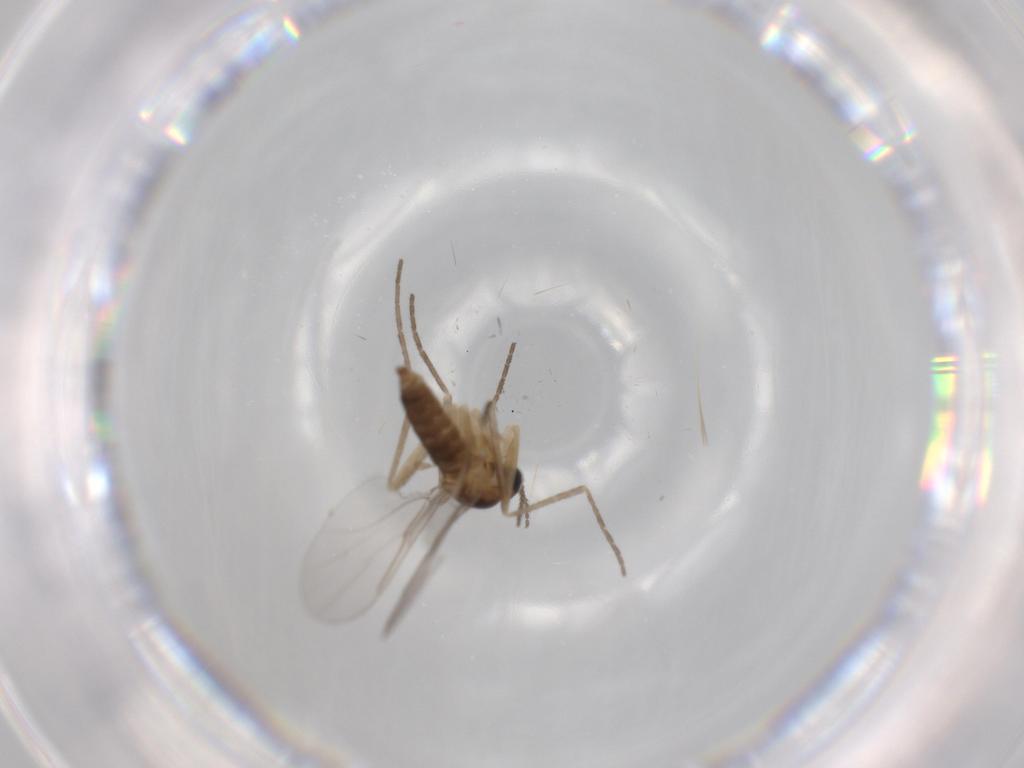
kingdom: Animalia
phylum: Arthropoda
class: Insecta
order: Diptera
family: Cecidomyiidae
